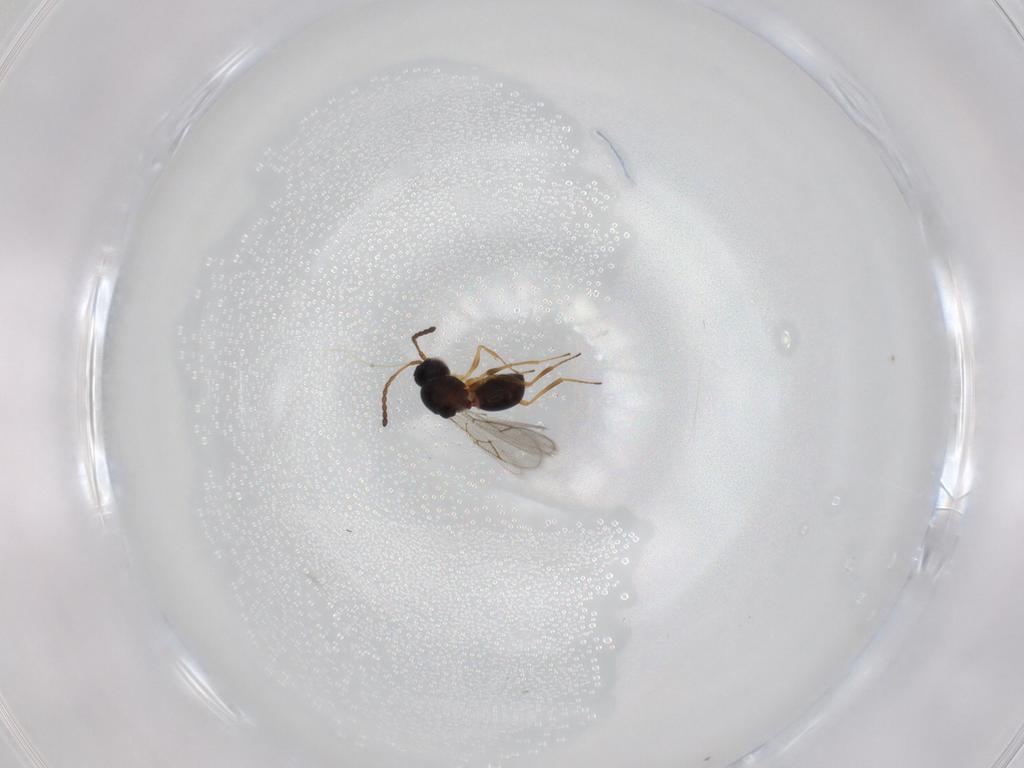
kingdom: Animalia
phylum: Arthropoda
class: Insecta
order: Hymenoptera
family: Figitidae
